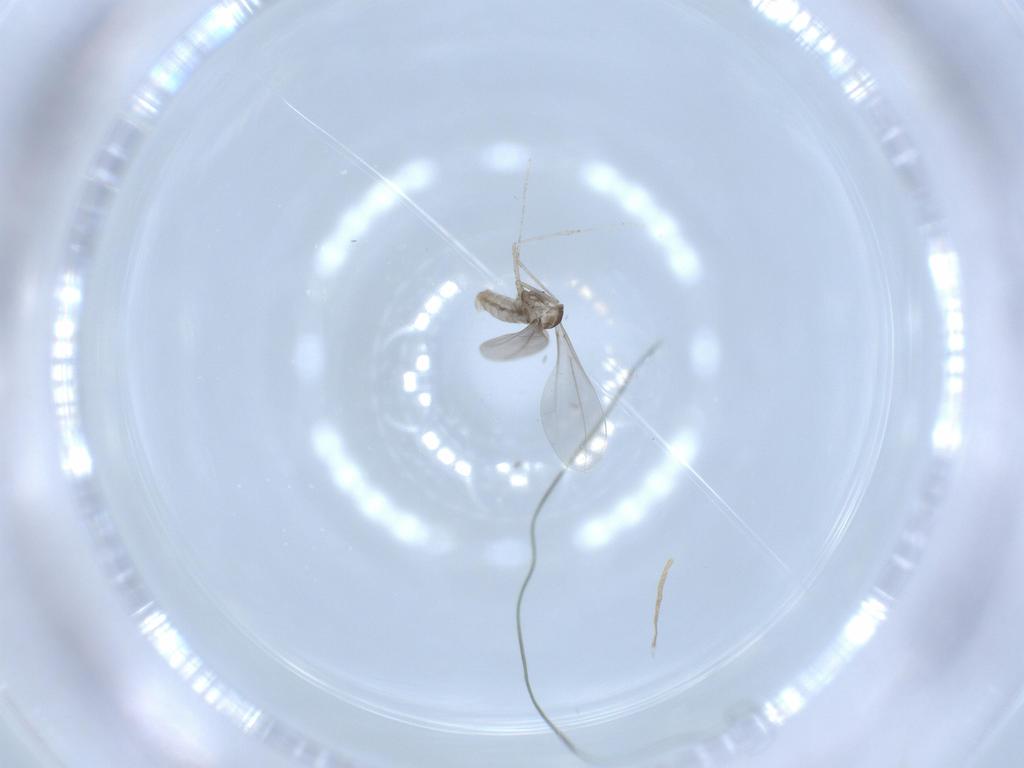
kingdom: Animalia
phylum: Arthropoda
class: Insecta
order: Diptera
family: Cecidomyiidae
